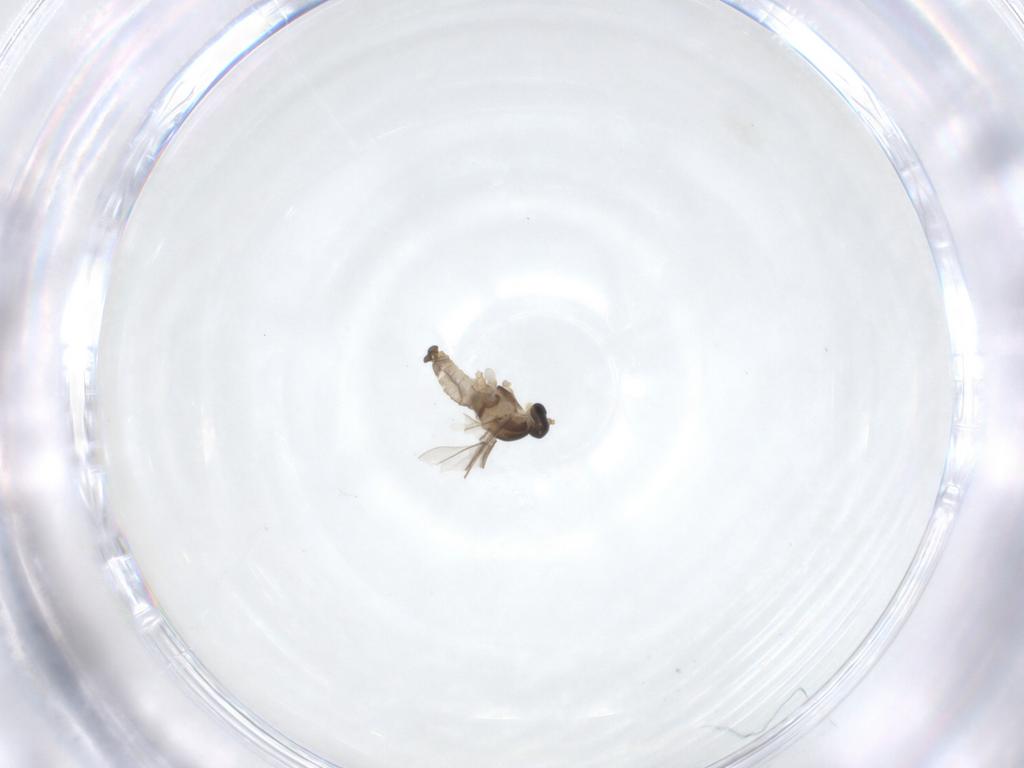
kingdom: Animalia
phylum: Arthropoda
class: Insecta
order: Diptera
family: Cecidomyiidae
